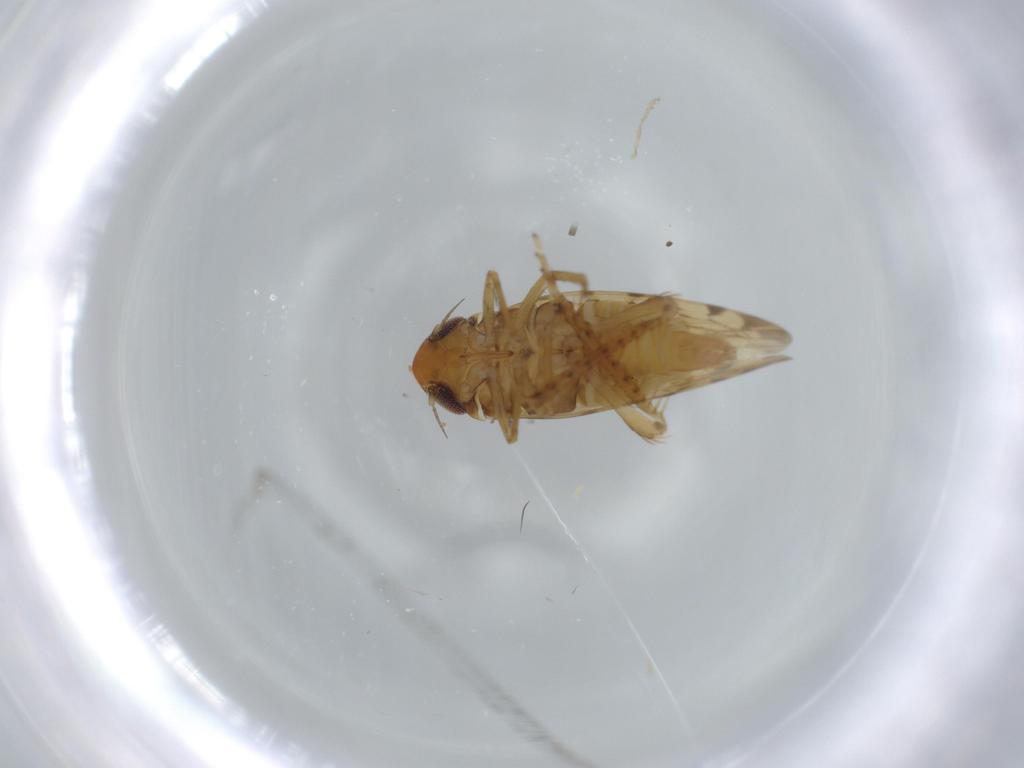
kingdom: Animalia
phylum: Arthropoda
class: Insecta
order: Hemiptera
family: Cicadellidae
